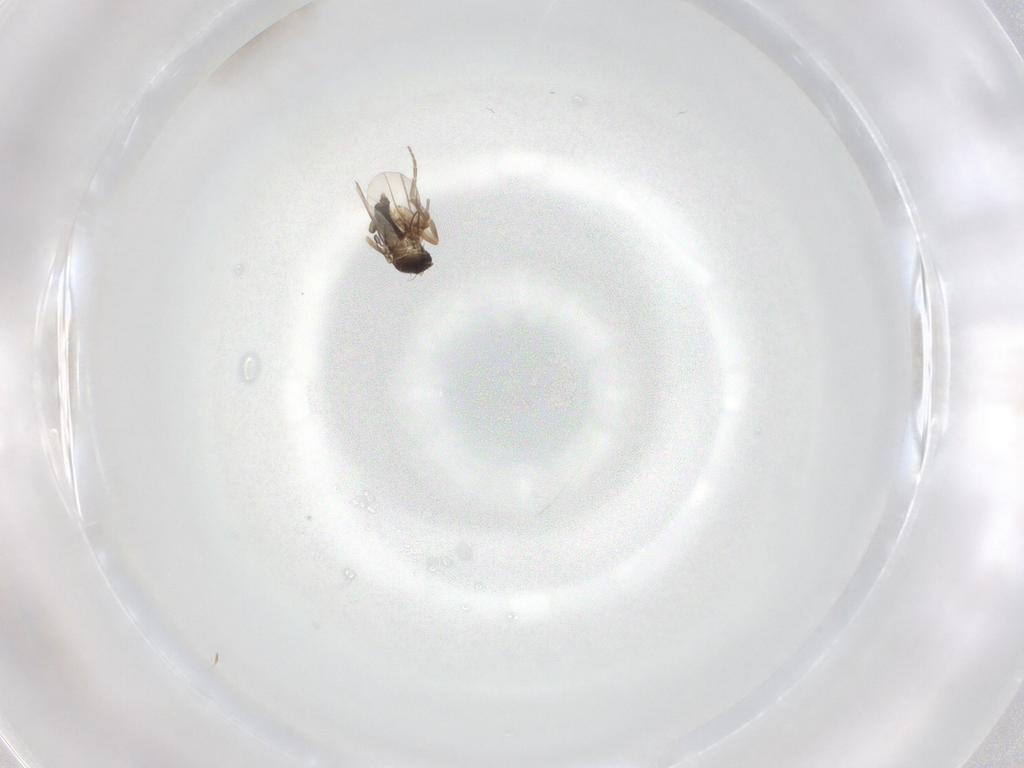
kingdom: Animalia
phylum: Arthropoda
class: Insecta
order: Diptera
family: Phoridae
